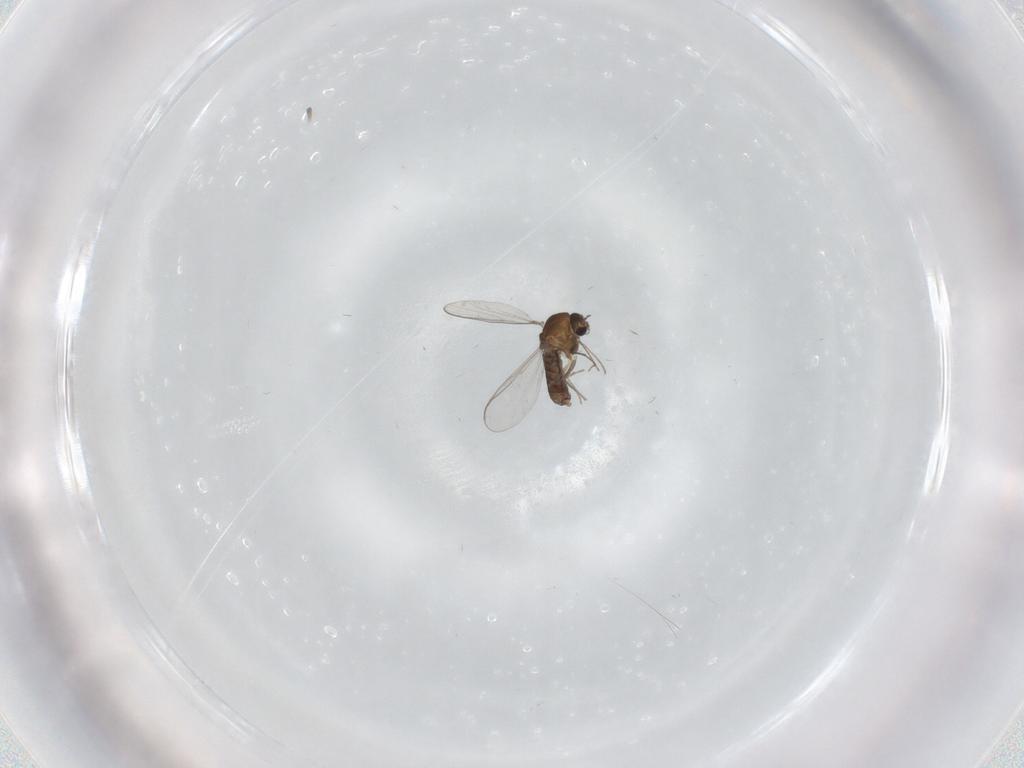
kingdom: Animalia
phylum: Arthropoda
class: Insecta
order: Diptera
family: Chironomidae
